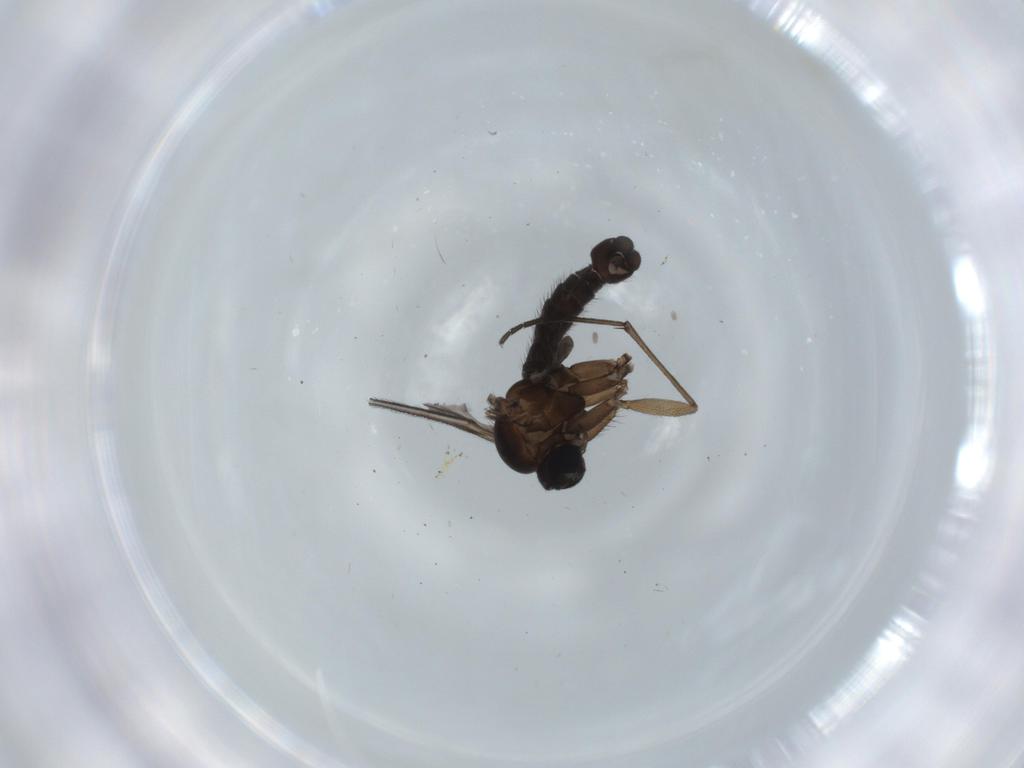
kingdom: Animalia
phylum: Arthropoda
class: Insecta
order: Diptera
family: Sciaridae
